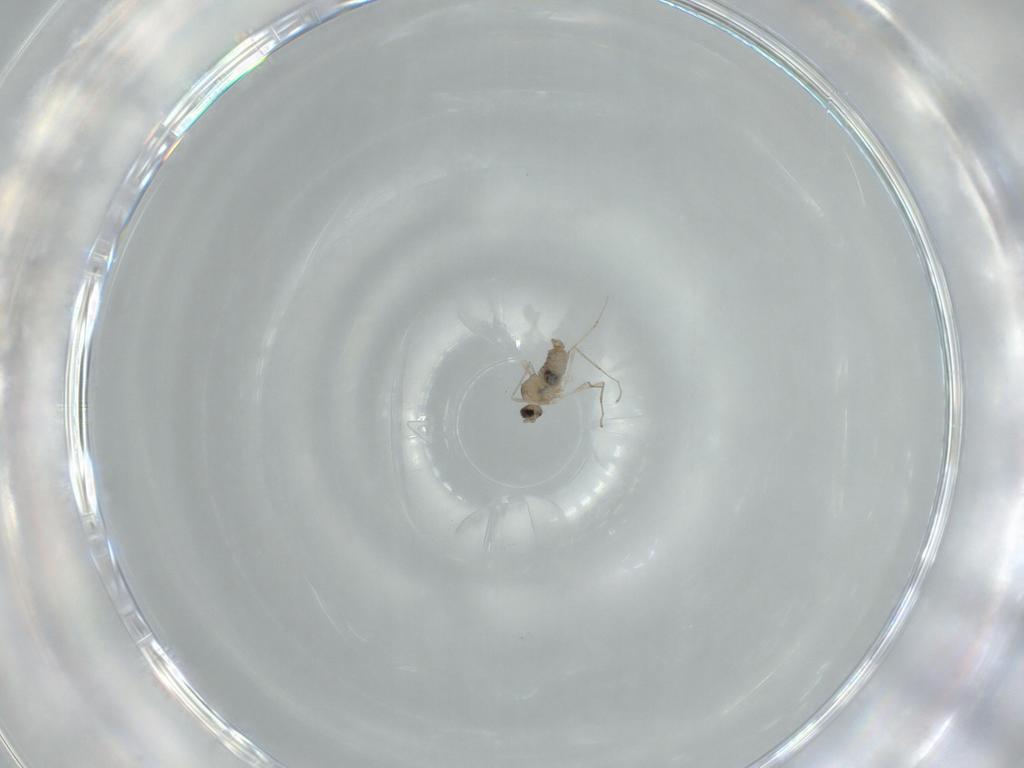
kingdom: Animalia
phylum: Arthropoda
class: Insecta
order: Diptera
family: Cecidomyiidae
